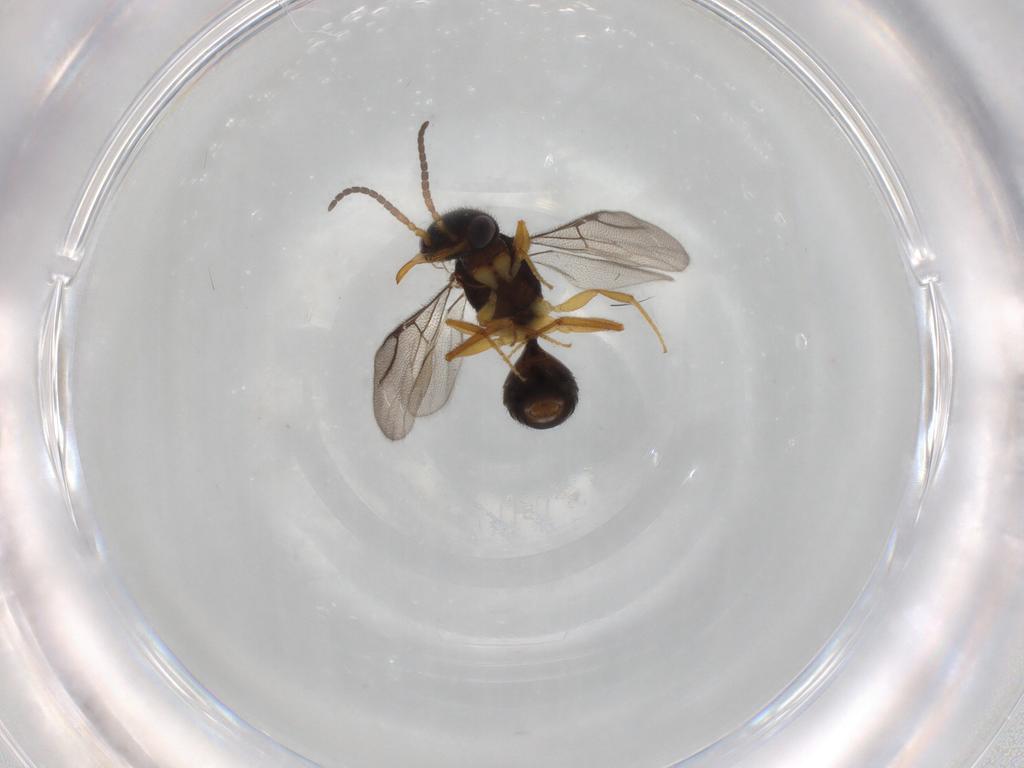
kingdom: Animalia
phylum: Arthropoda
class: Insecta
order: Hymenoptera
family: Bethylidae
